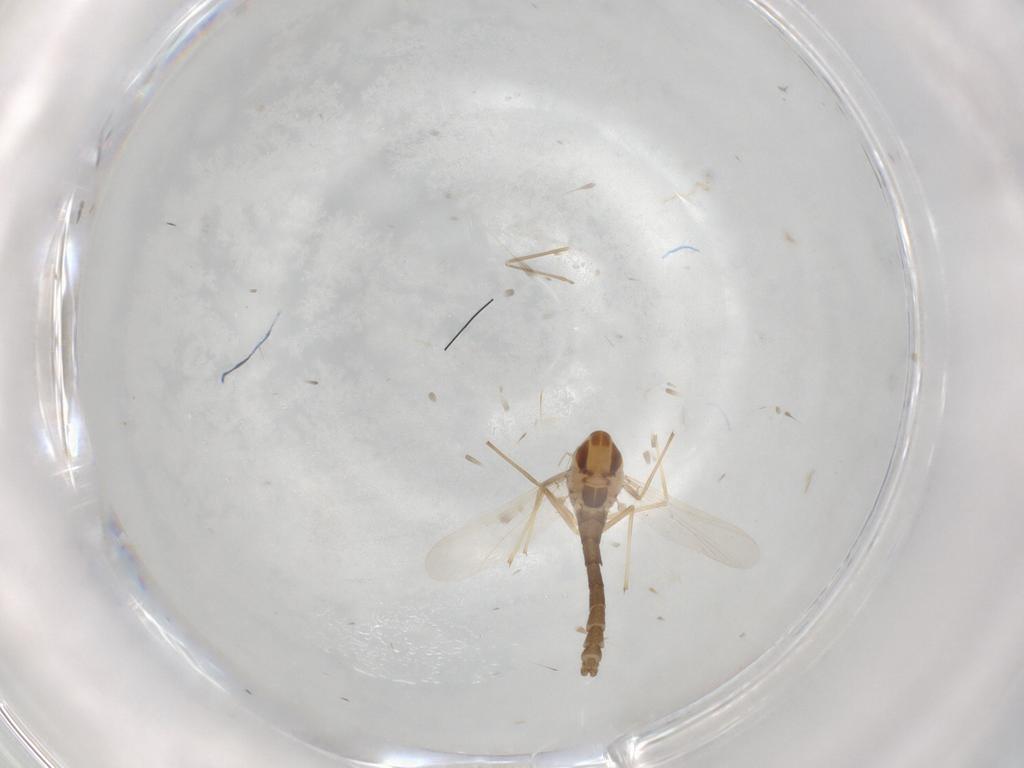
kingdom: Animalia
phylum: Arthropoda
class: Insecta
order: Diptera
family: Chironomidae
